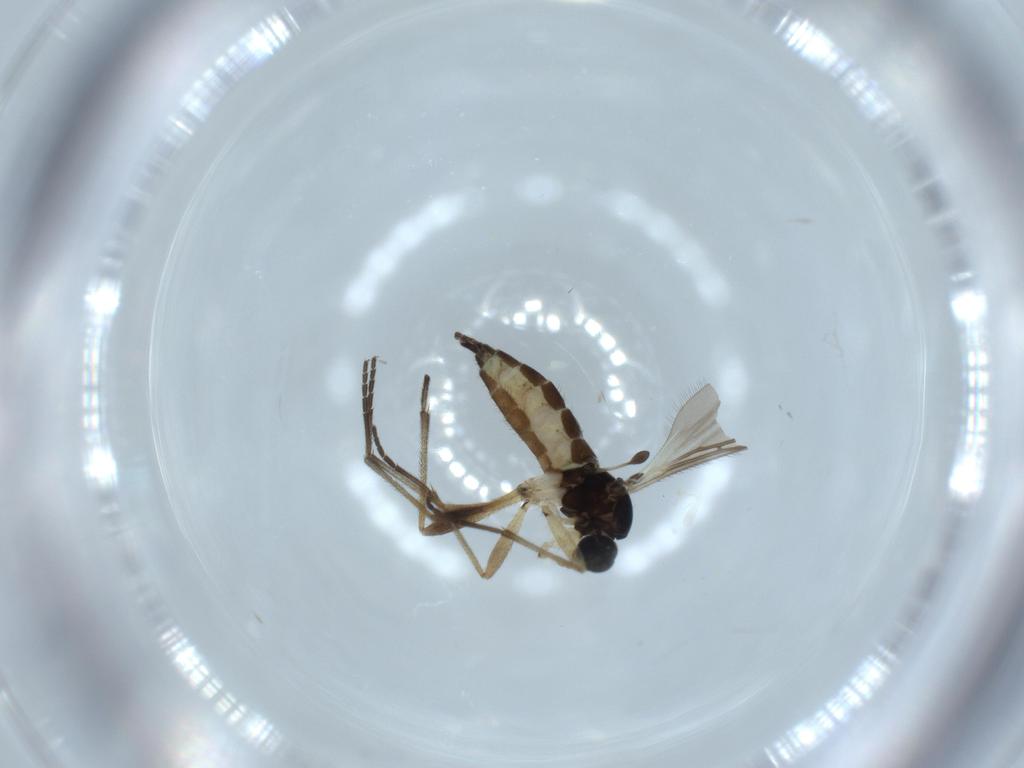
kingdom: Animalia
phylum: Arthropoda
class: Insecta
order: Diptera
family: Sciaridae
